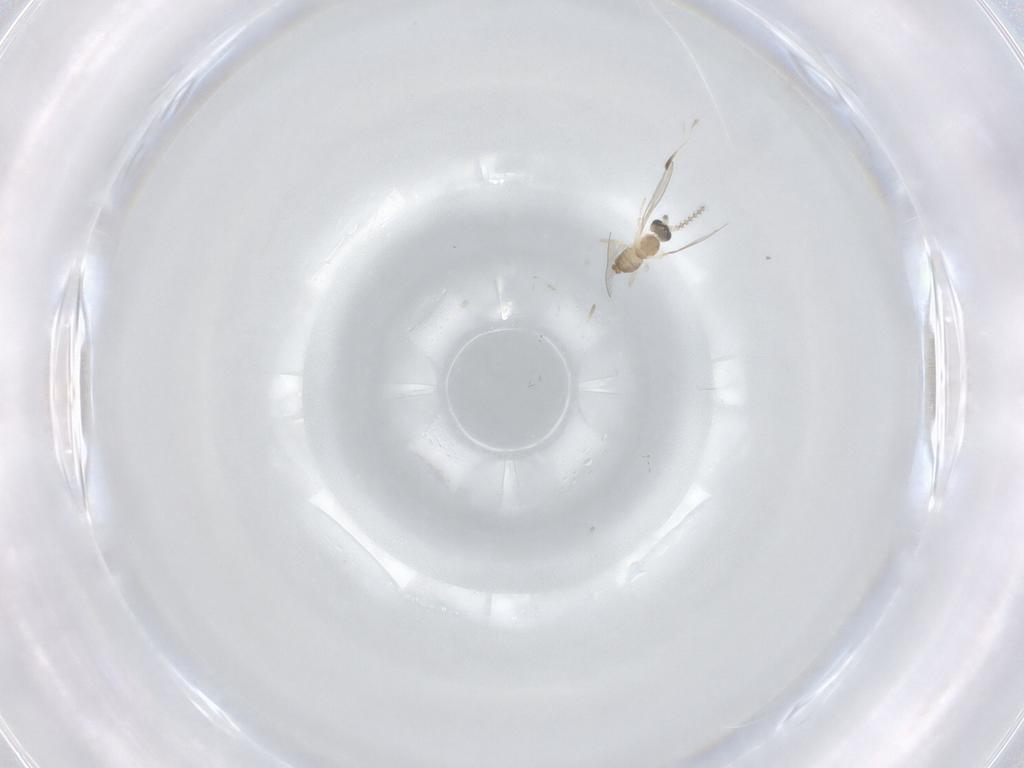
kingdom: Animalia
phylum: Arthropoda
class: Insecta
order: Diptera
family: Cecidomyiidae
